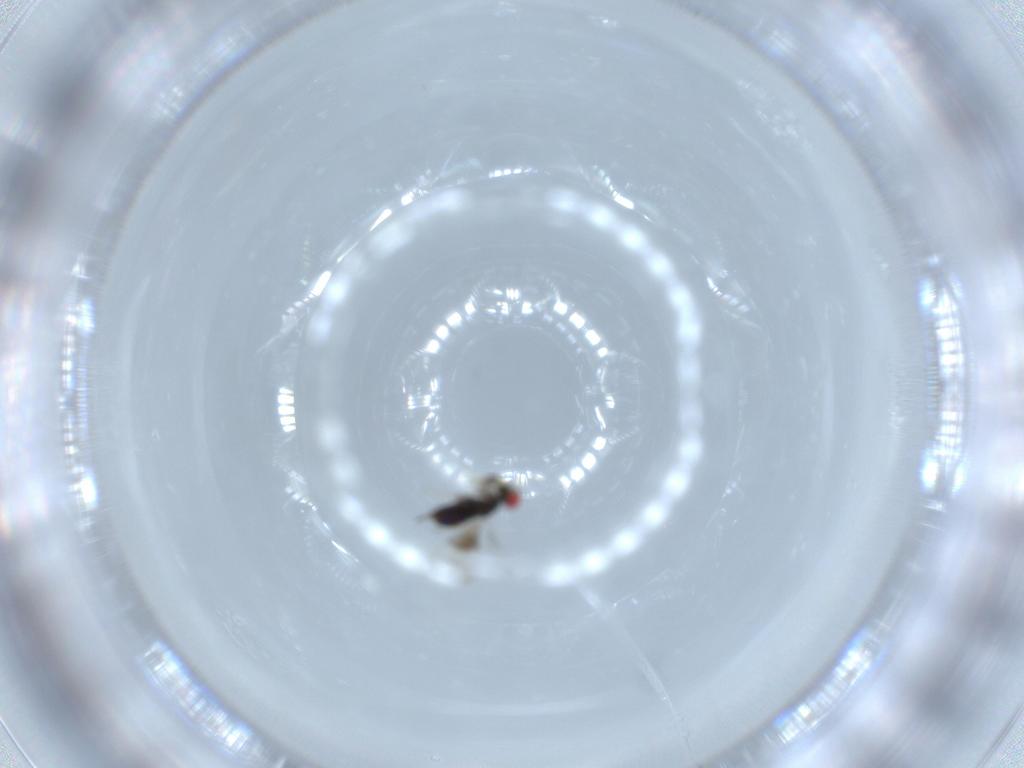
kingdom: Animalia
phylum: Arthropoda
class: Insecta
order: Hymenoptera
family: Azotidae
